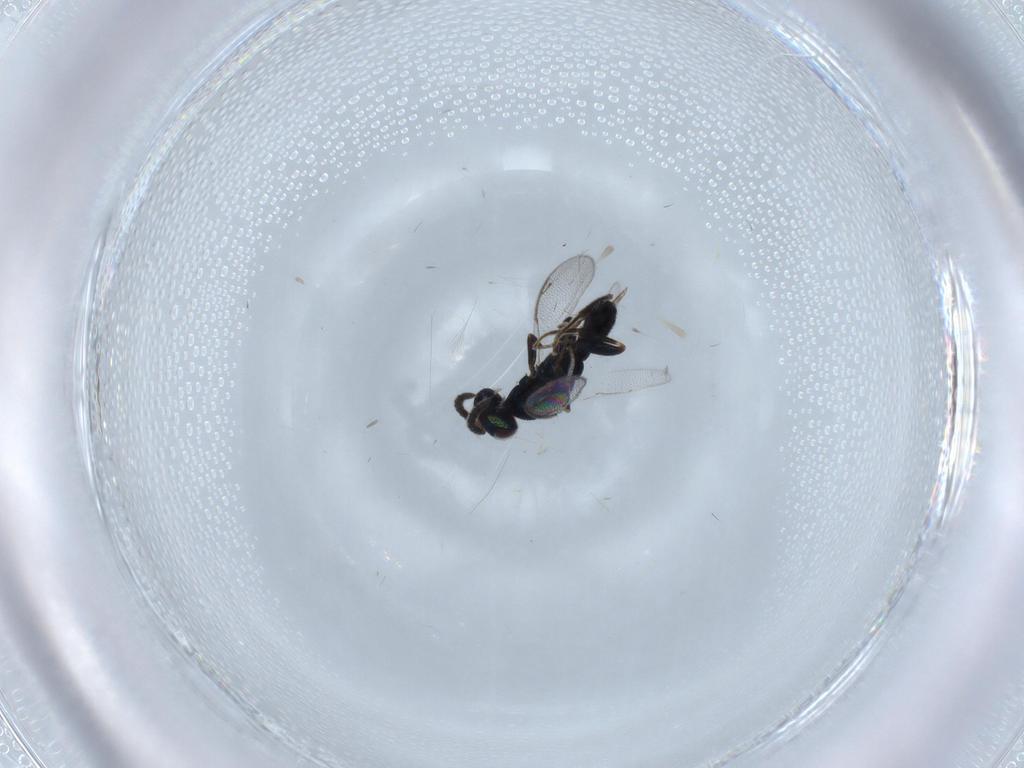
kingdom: Animalia
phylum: Arthropoda
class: Insecta
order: Hymenoptera
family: Cleonyminae
